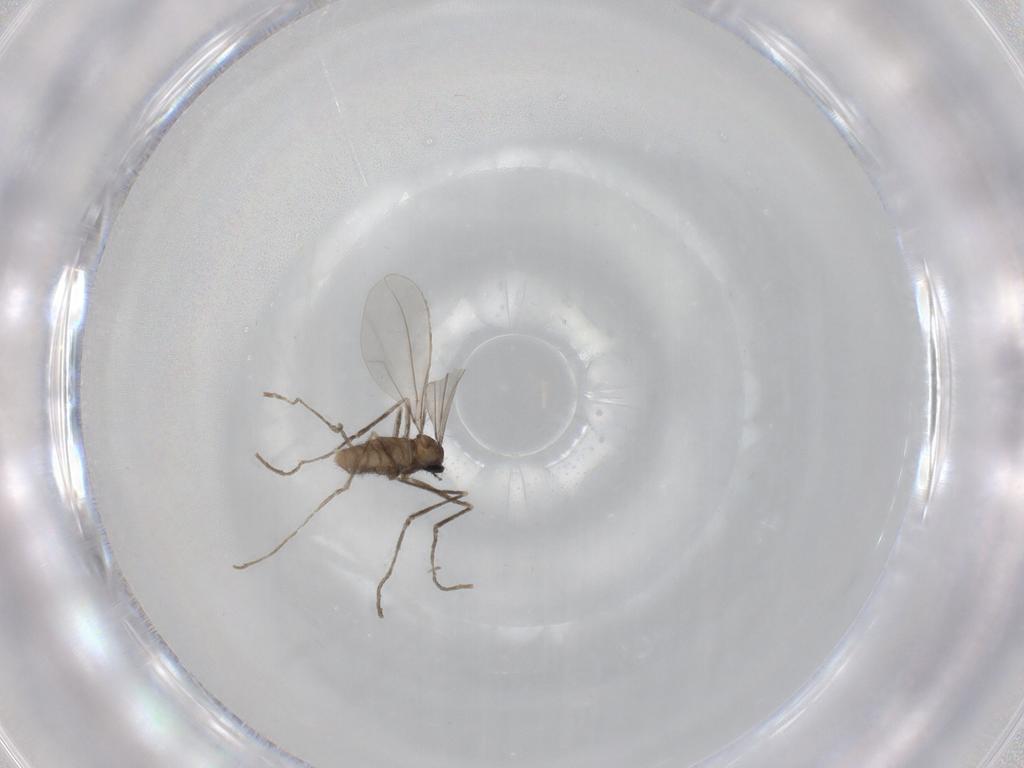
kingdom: Animalia
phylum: Arthropoda
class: Insecta
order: Diptera
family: Cecidomyiidae
